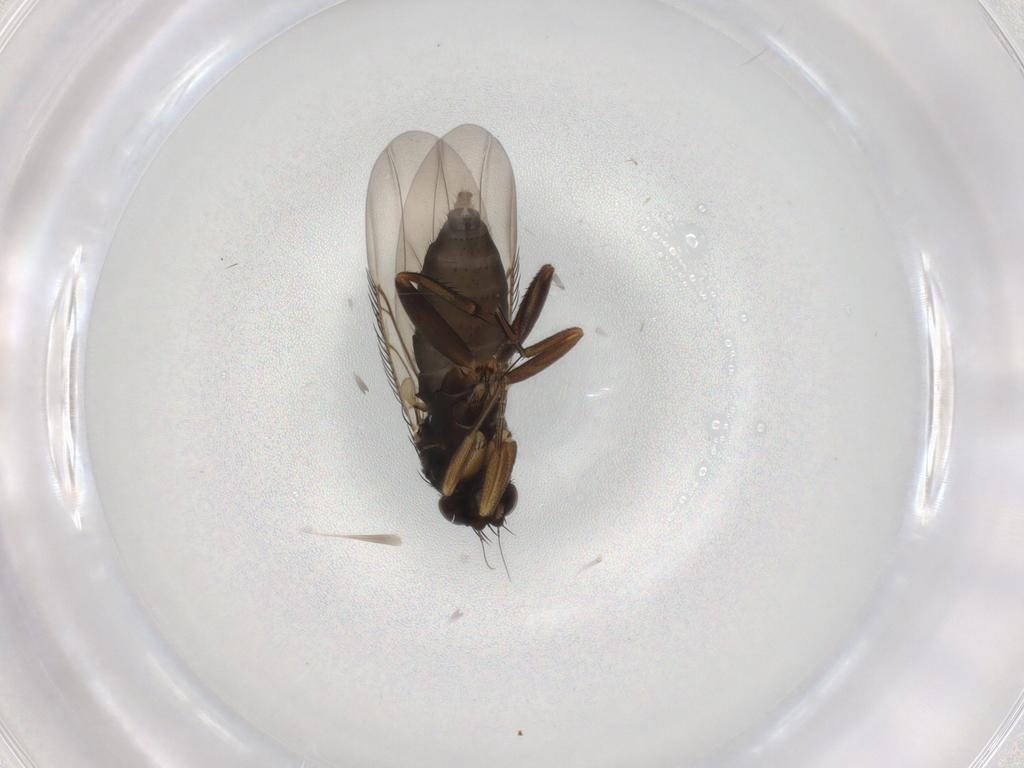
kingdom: Animalia
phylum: Arthropoda
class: Insecta
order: Diptera
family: Phoridae
